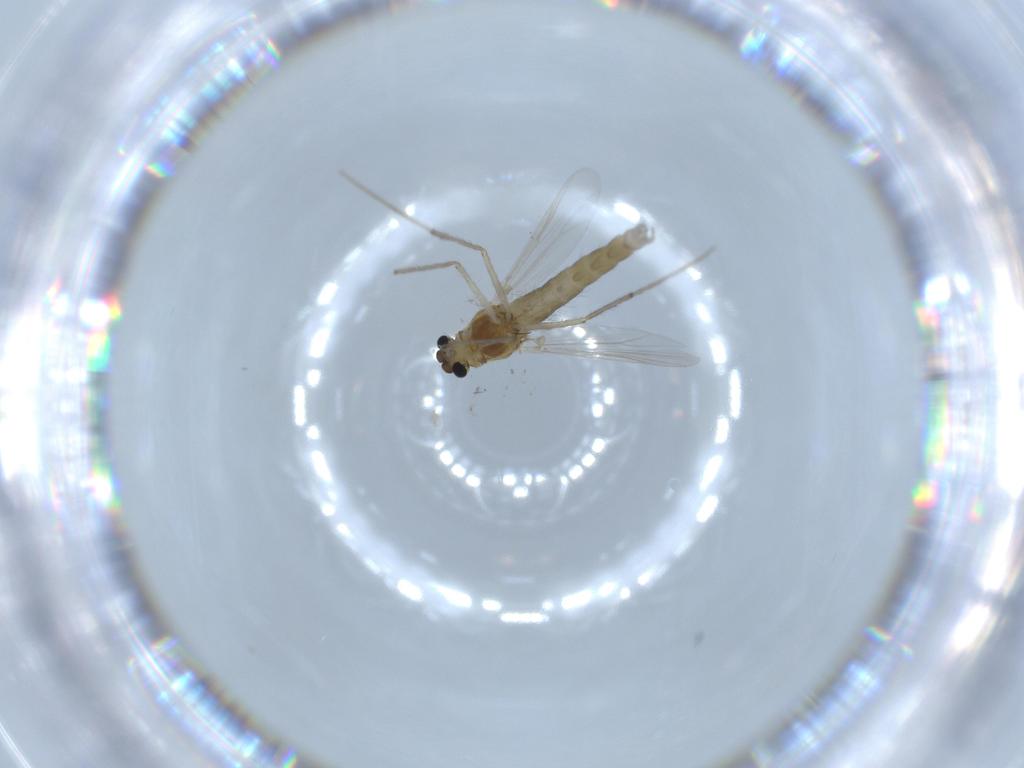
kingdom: Animalia
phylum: Arthropoda
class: Insecta
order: Diptera
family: Chironomidae
